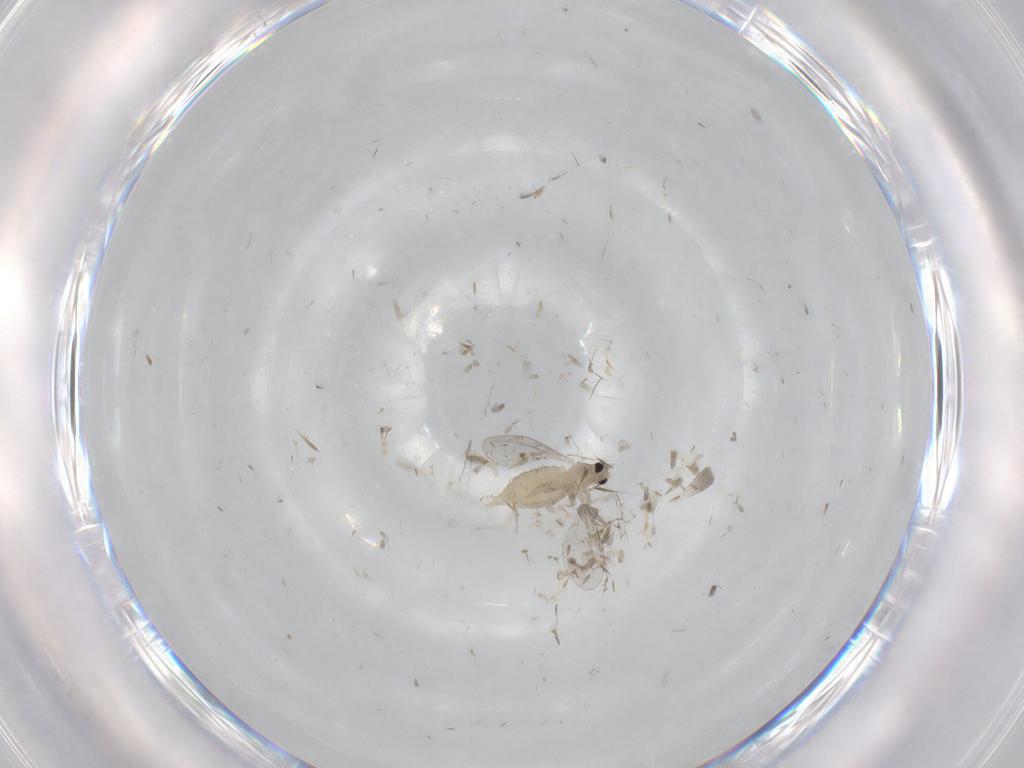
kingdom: Animalia
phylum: Arthropoda
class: Insecta
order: Diptera
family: Cecidomyiidae
